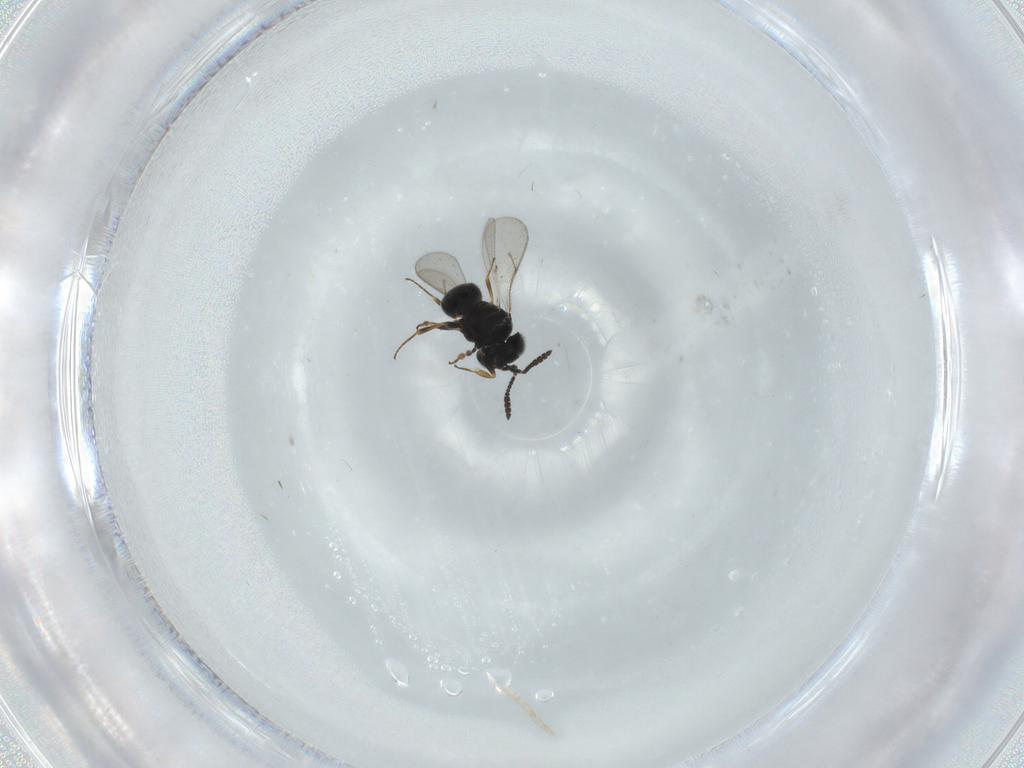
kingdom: Animalia
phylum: Arthropoda
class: Insecta
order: Hymenoptera
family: Scelionidae
